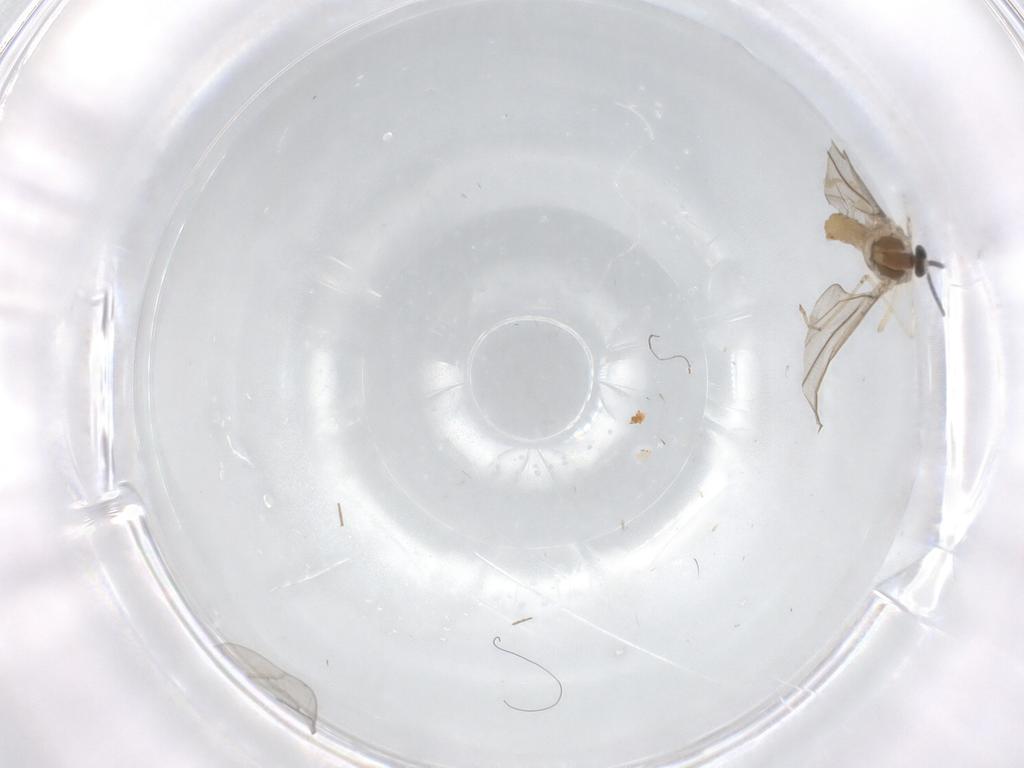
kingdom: Animalia
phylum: Arthropoda
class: Insecta
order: Diptera
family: Chironomidae
